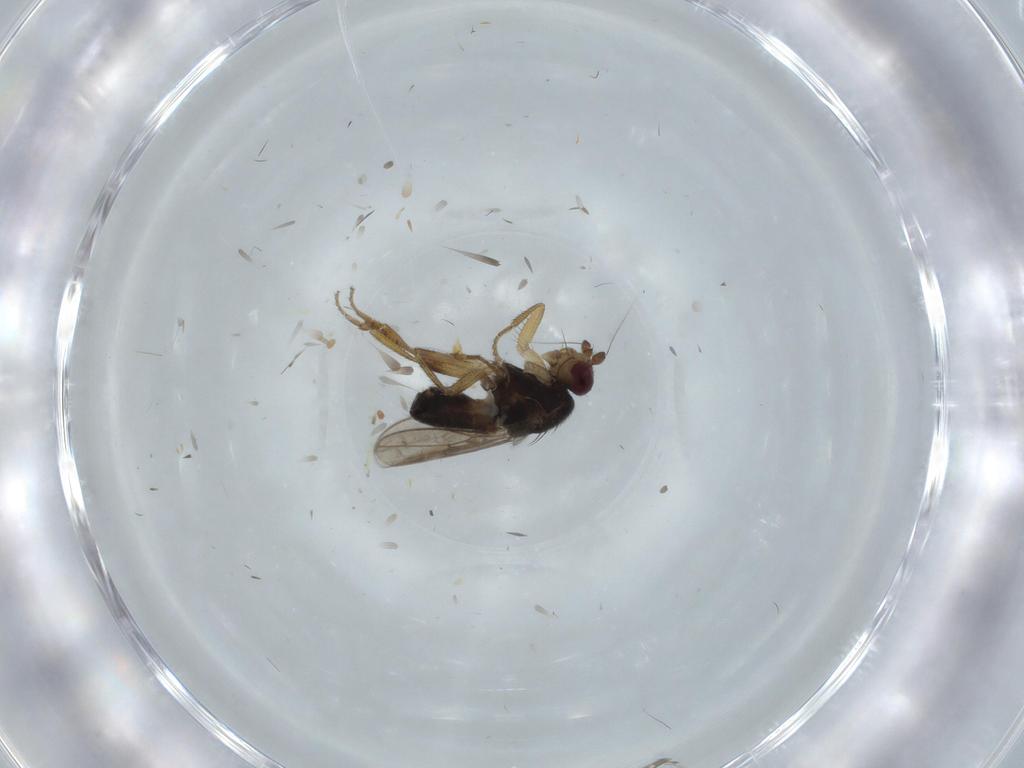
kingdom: Animalia
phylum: Arthropoda
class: Insecta
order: Diptera
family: Sphaeroceridae
